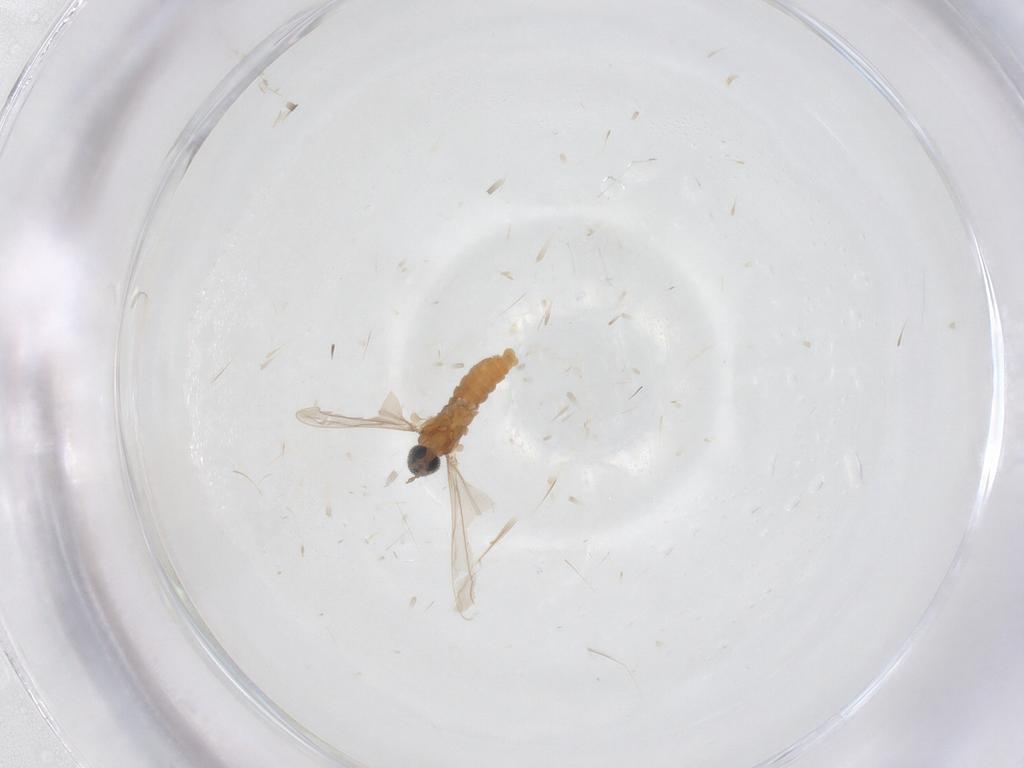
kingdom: Animalia
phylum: Arthropoda
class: Insecta
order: Diptera
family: Cecidomyiidae
